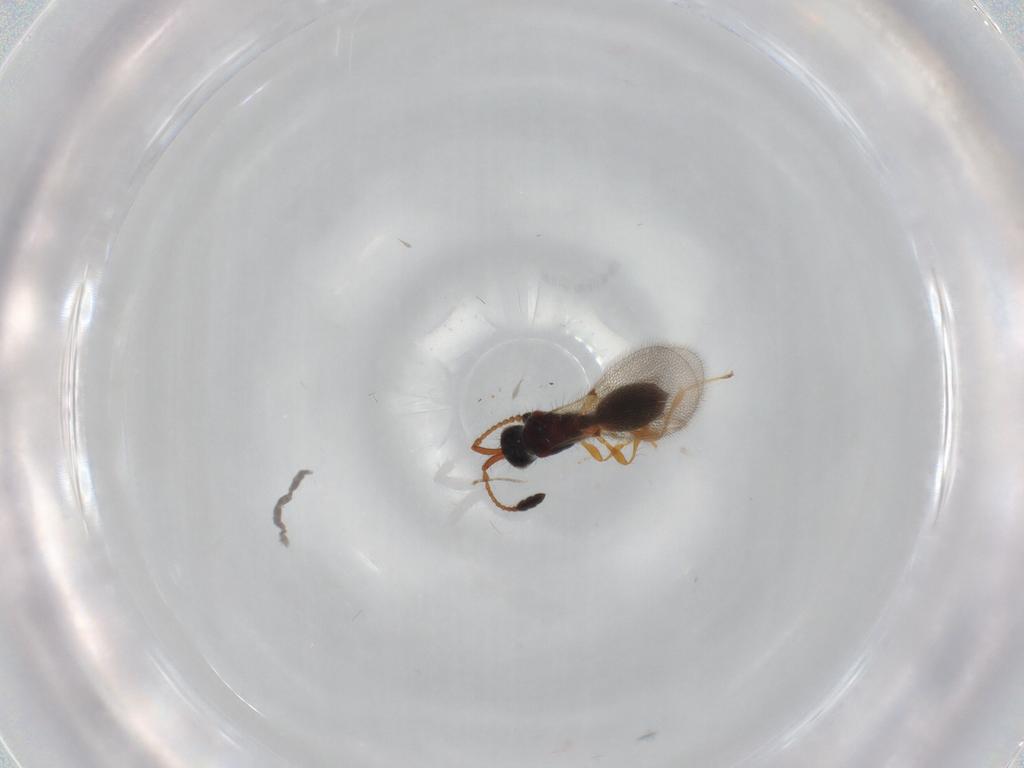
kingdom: Animalia
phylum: Arthropoda
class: Insecta
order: Hymenoptera
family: Diapriidae
